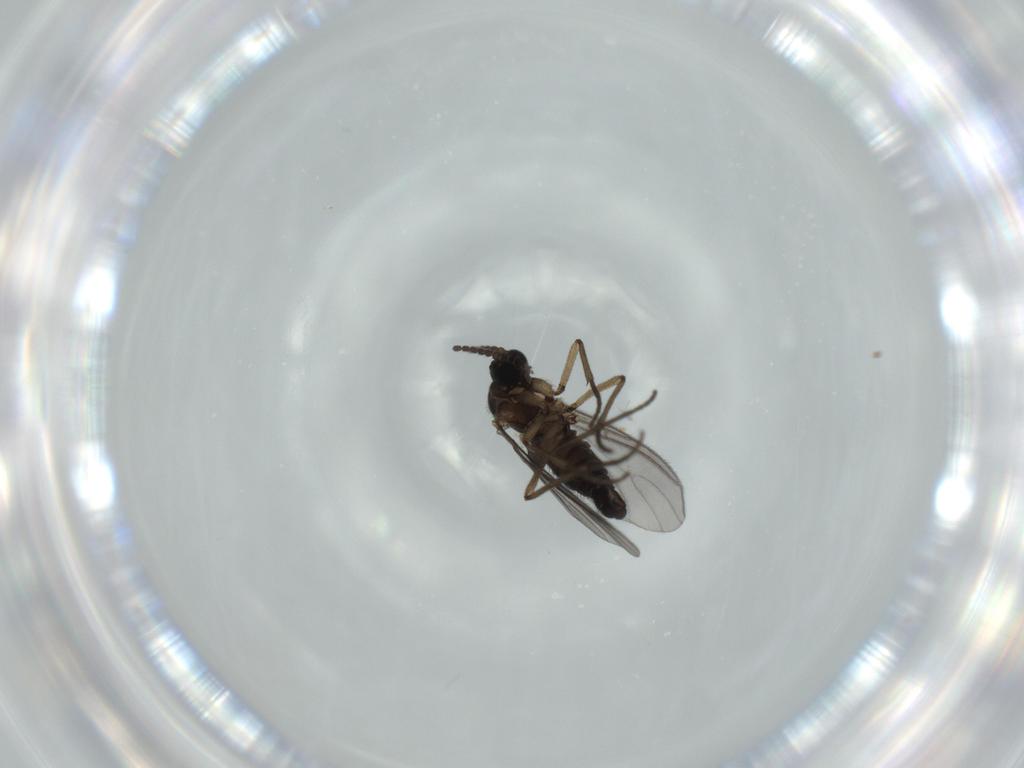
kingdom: Animalia
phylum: Arthropoda
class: Insecta
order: Diptera
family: Sciaridae
